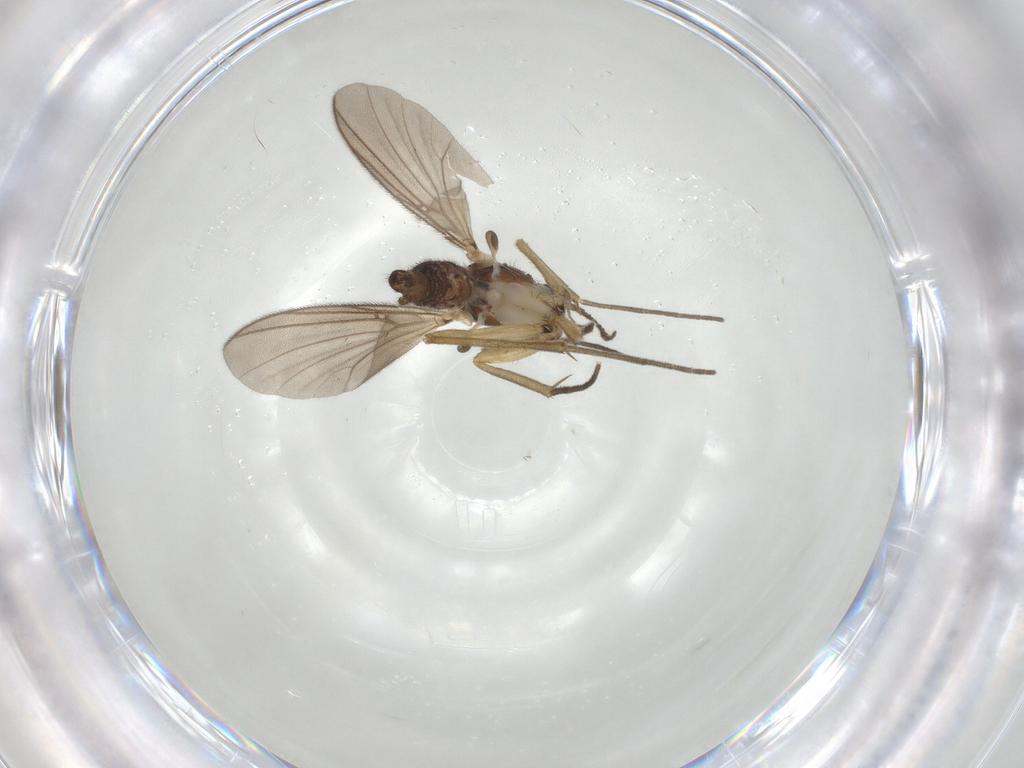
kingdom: Animalia
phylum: Arthropoda
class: Insecta
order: Diptera
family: Mycetophilidae
